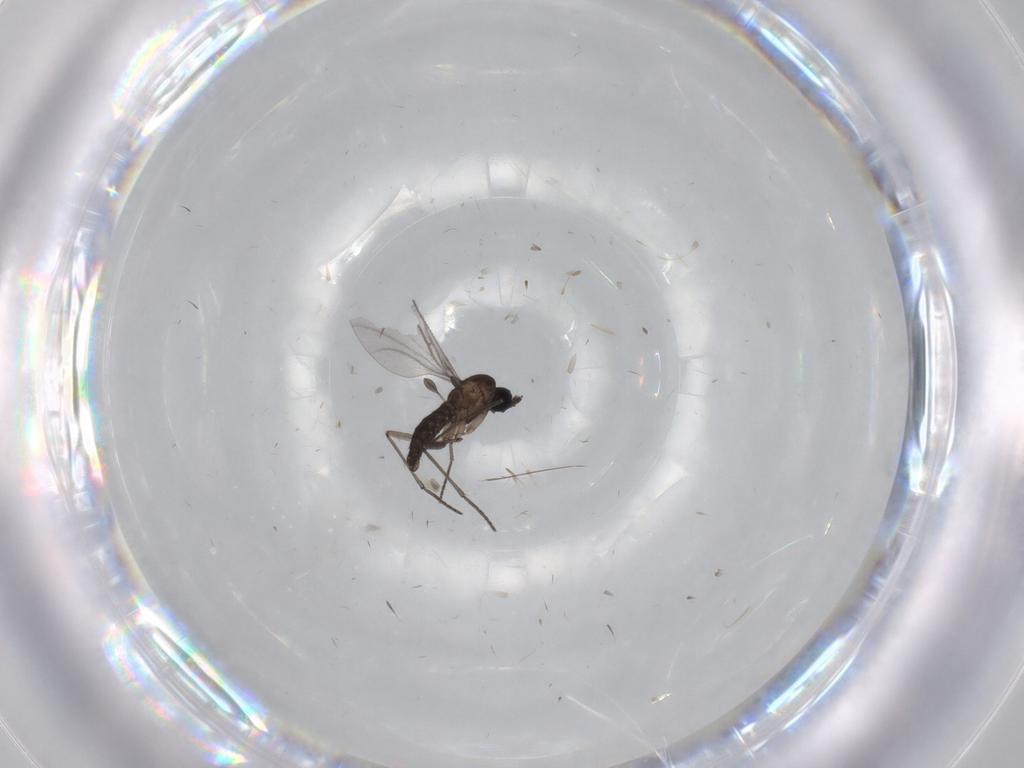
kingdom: Animalia
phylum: Arthropoda
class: Insecta
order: Diptera
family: Sciaridae
